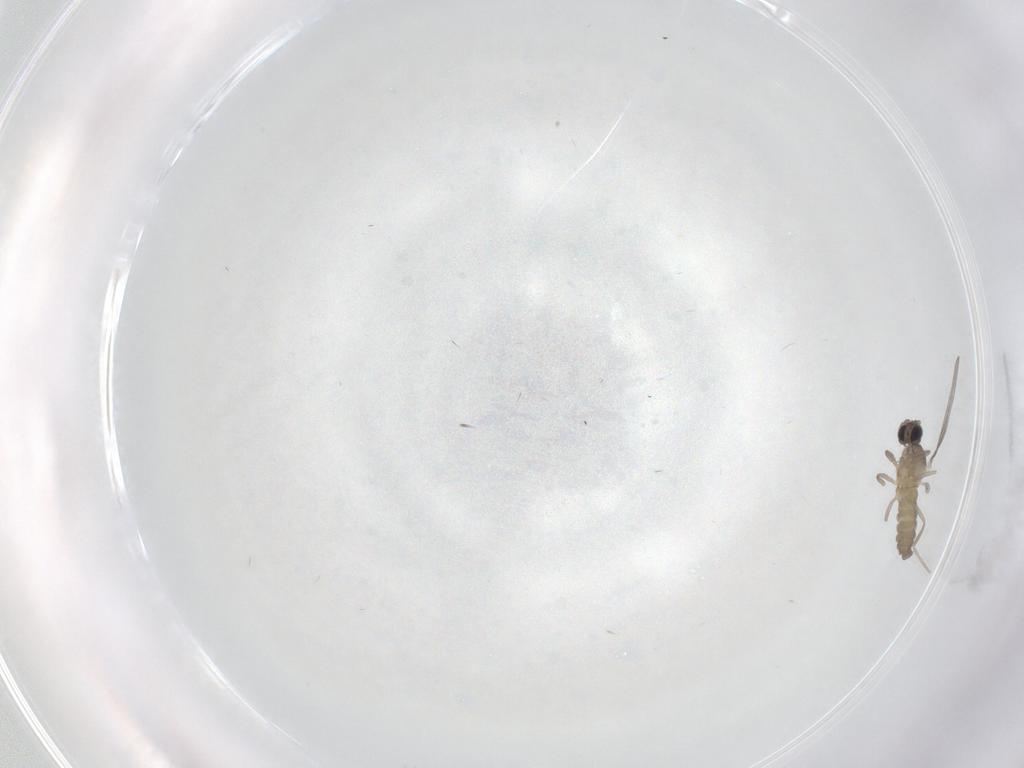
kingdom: Animalia
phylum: Arthropoda
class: Insecta
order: Diptera
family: Cecidomyiidae
